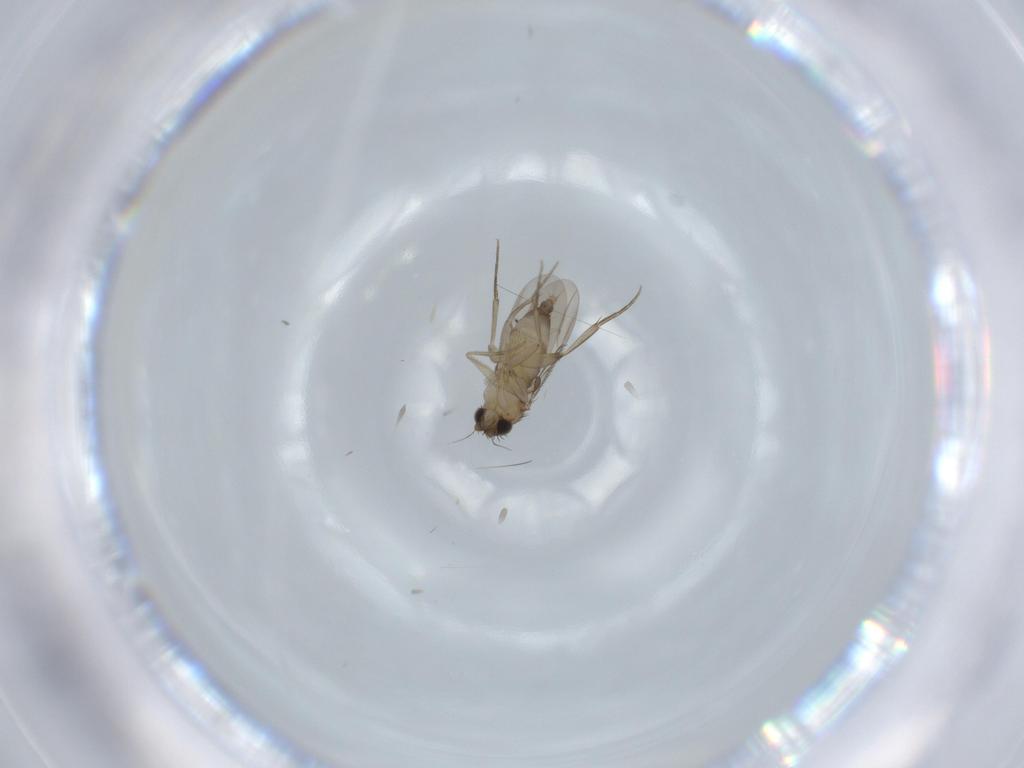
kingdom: Animalia
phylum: Arthropoda
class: Insecta
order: Diptera
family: Phoridae
